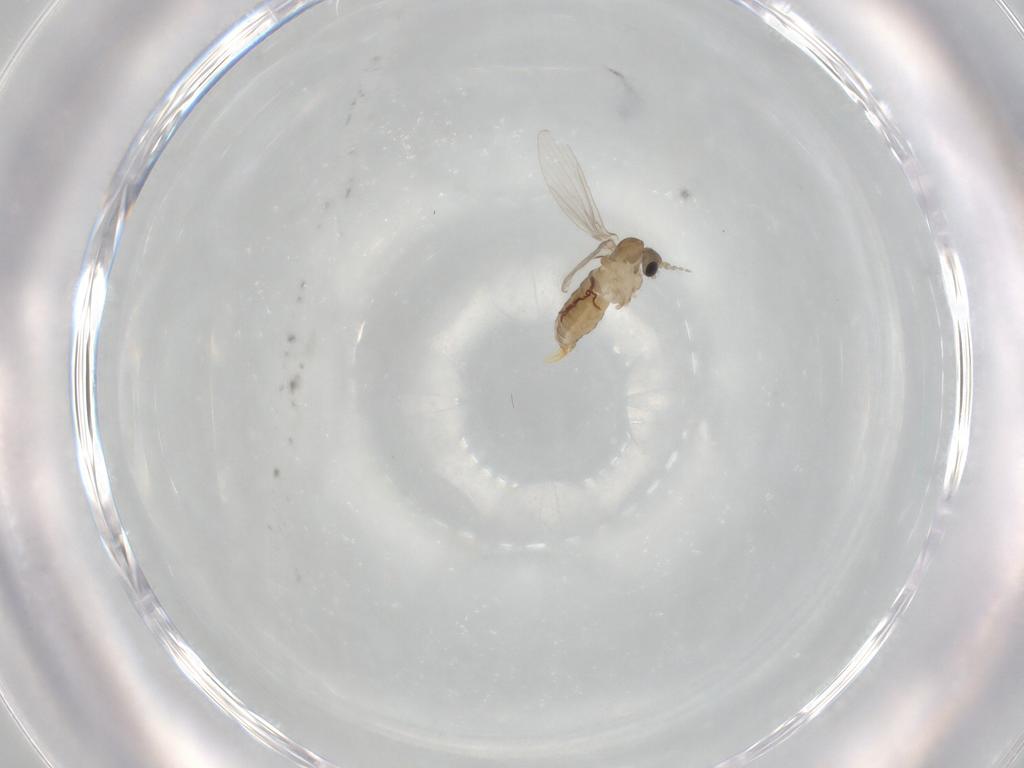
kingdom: Animalia
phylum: Arthropoda
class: Insecta
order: Diptera
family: Psychodidae
